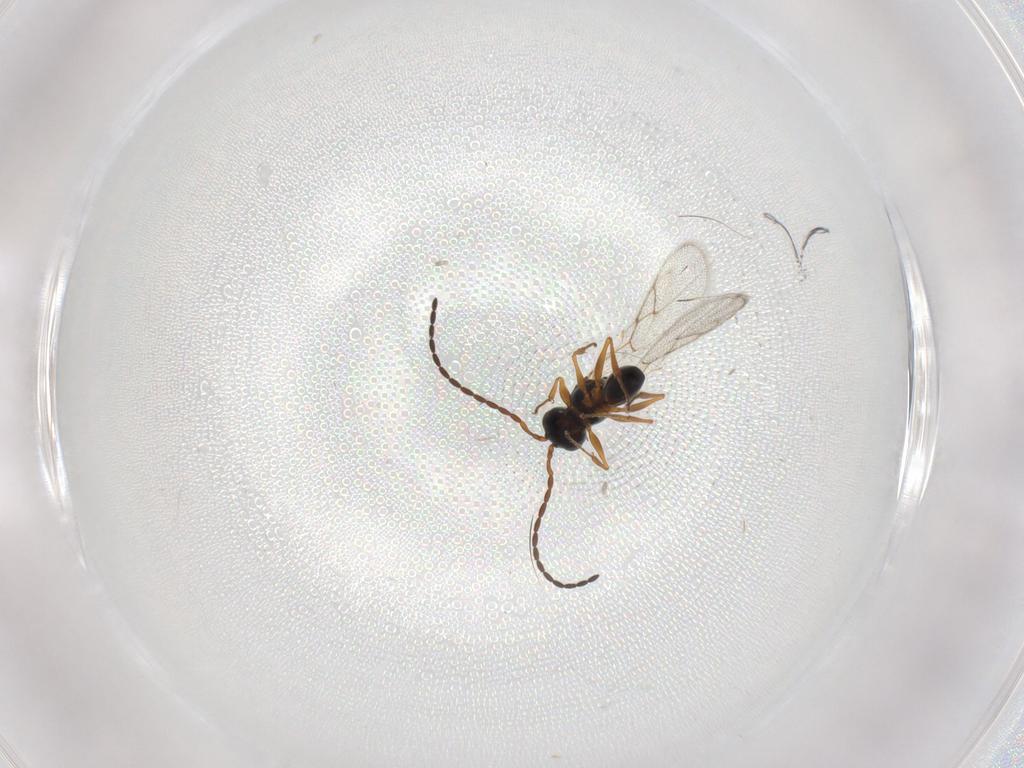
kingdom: Animalia
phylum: Arthropoda
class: Insecta
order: Hymenoptera
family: Figitidae
